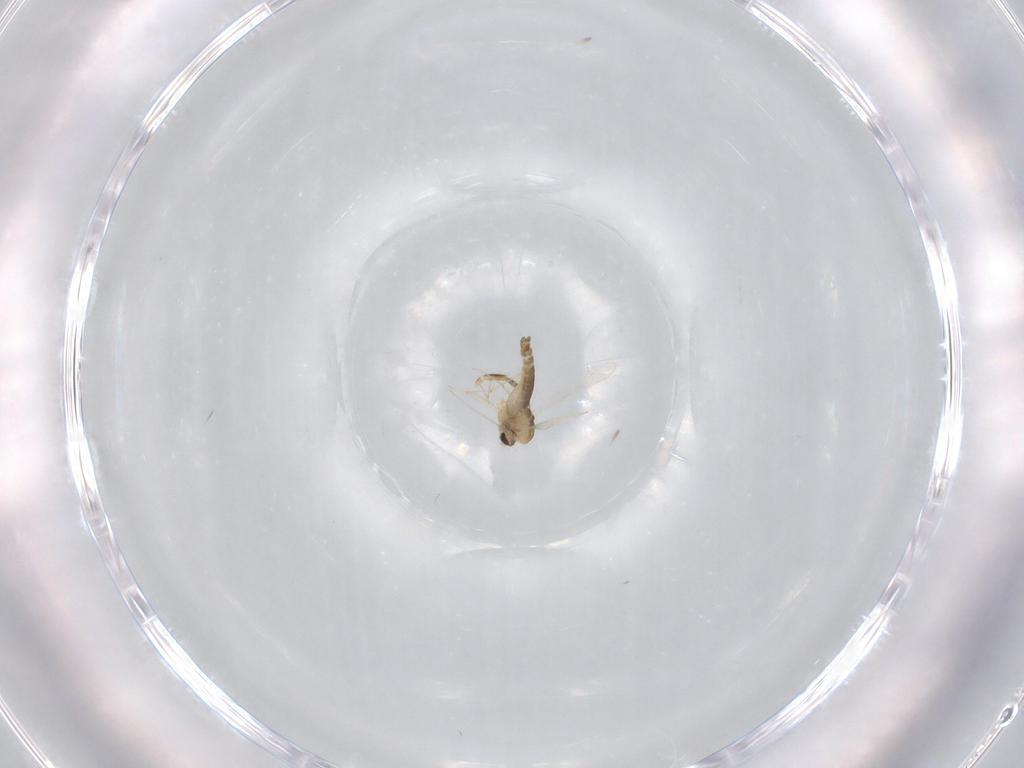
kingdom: Animalia
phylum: Arthropoda
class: Insecta
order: Diptera
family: Chironomidae
